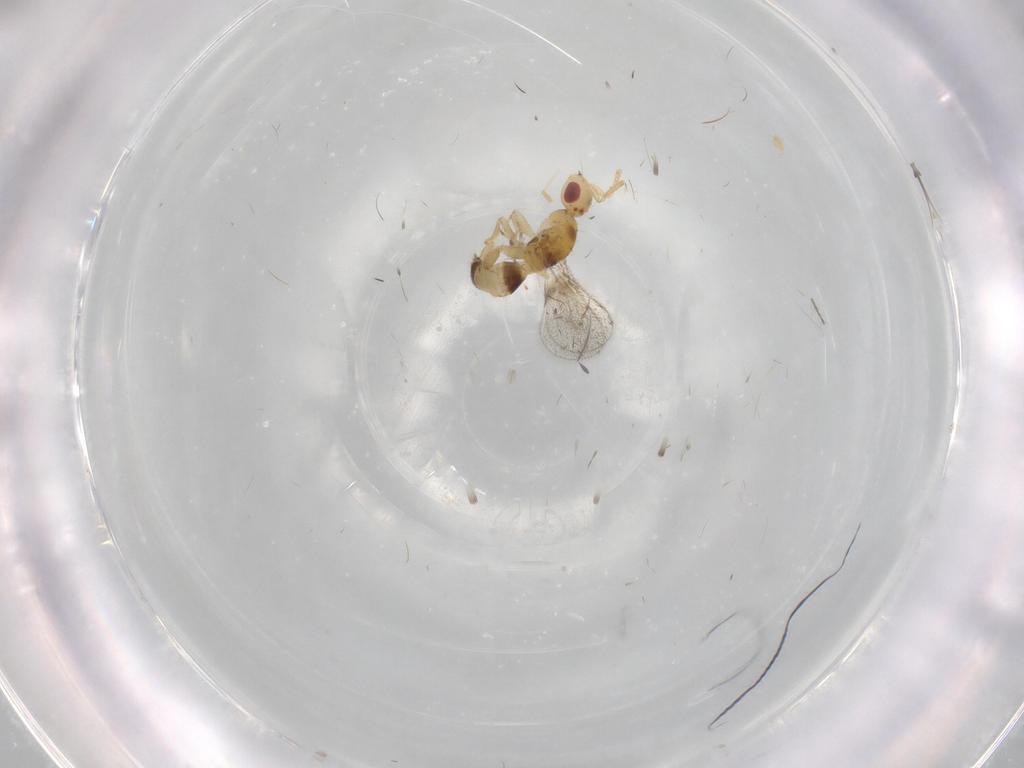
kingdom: Animalia
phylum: Arthropoda
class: Insecta
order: Hymenoptera
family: Torymidae
